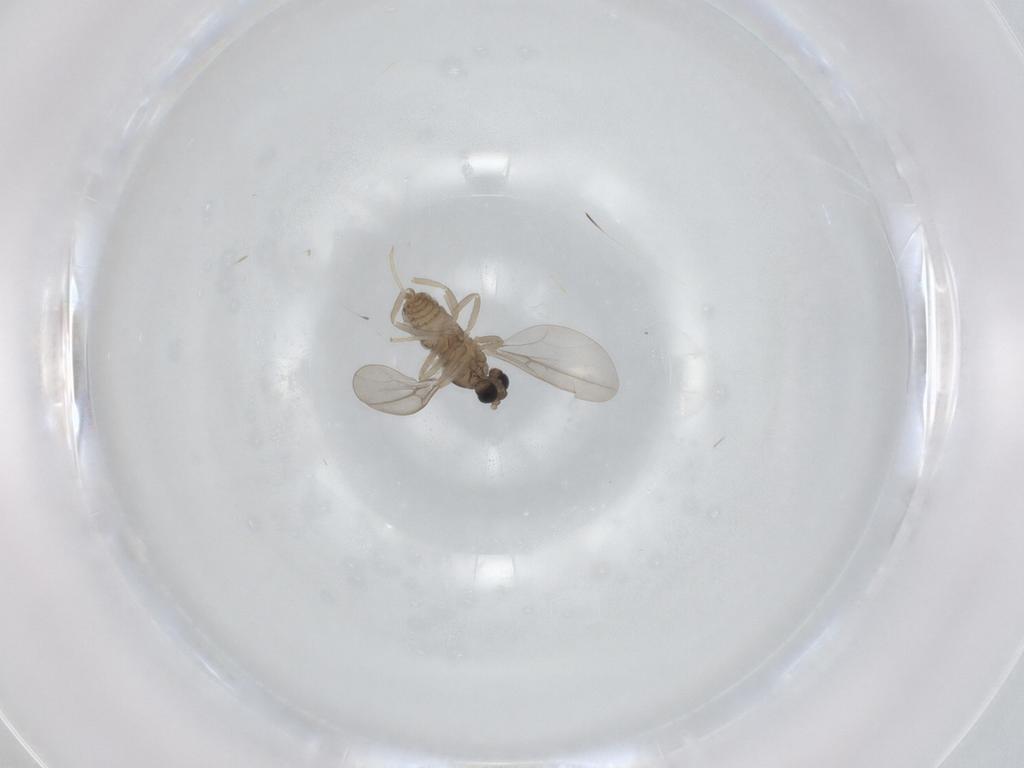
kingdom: Animalia
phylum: Arthropoda
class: Insecta
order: Diptera
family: Cecidomyiidae
